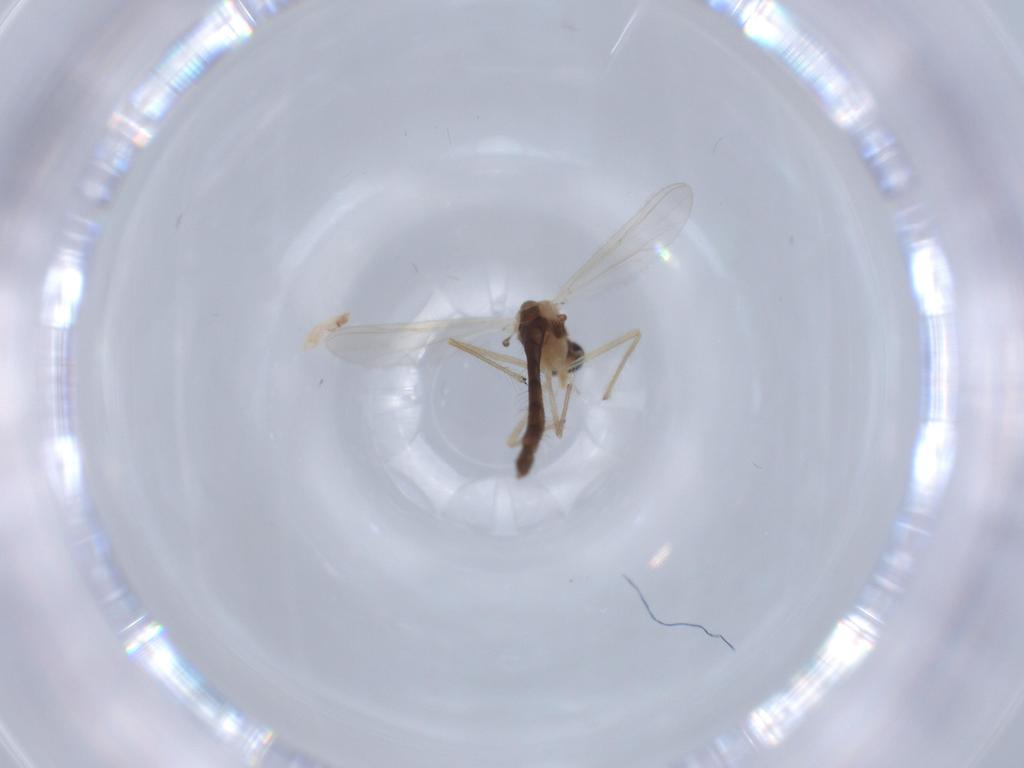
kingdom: Animalia
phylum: Arthropoda
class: Insecta
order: Diptera
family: Chironomidae
